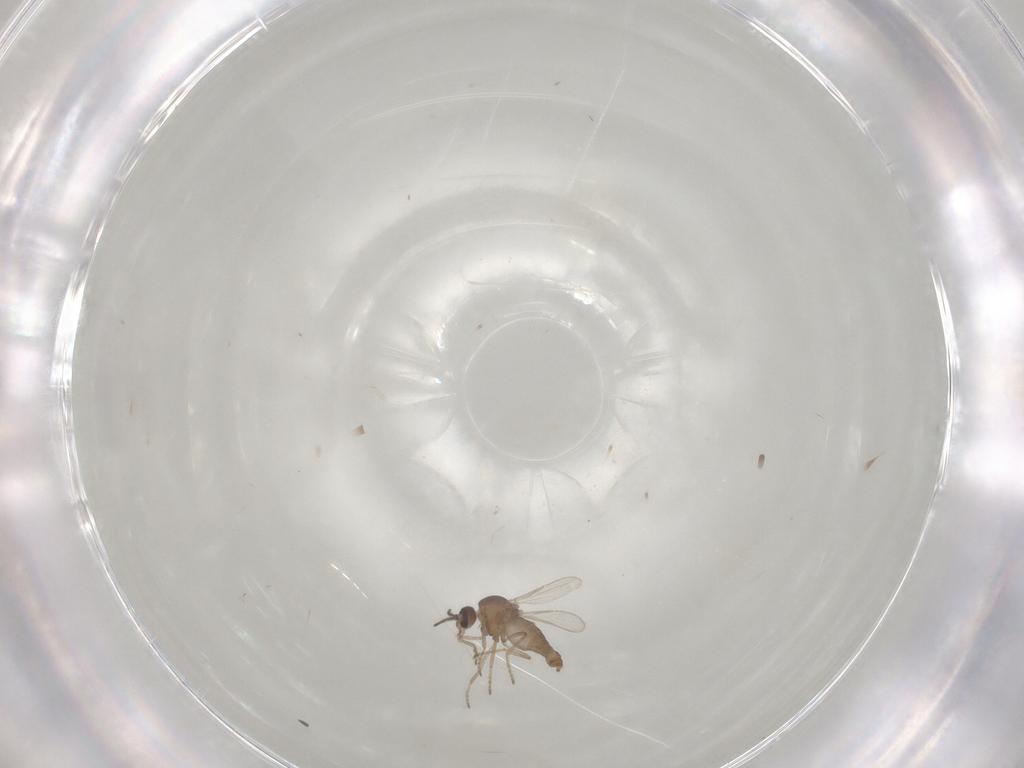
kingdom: Animalia
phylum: Arthropoda
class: Insecta
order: Diptera
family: Ceratopogonidae
